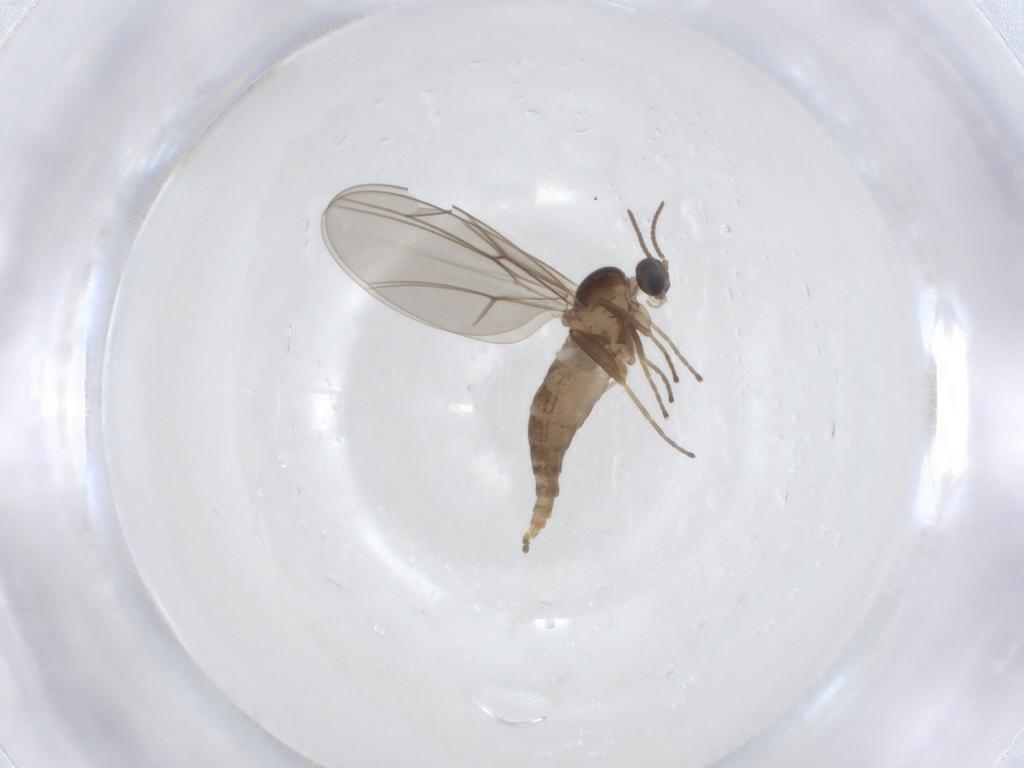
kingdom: Animalia
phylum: Arthropoda
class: Insecta
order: Diptera
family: Cecidomyiidae
